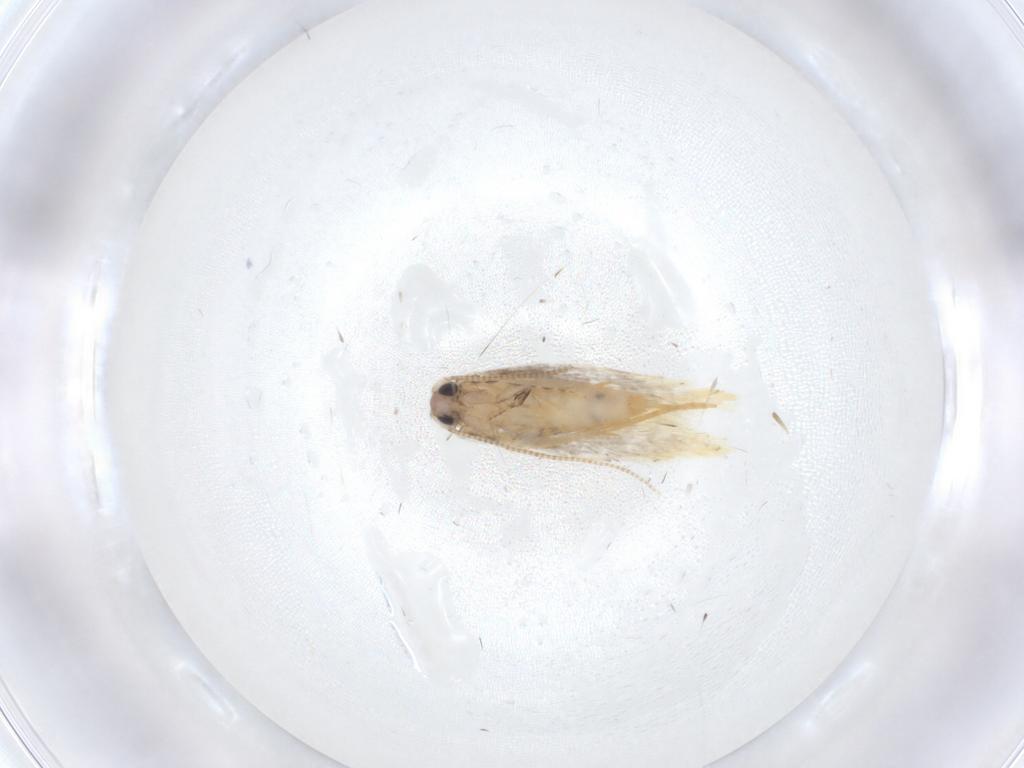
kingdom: Animalia
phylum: Arthropoda
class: Insecta
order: Lepidoptera
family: Tineidae
